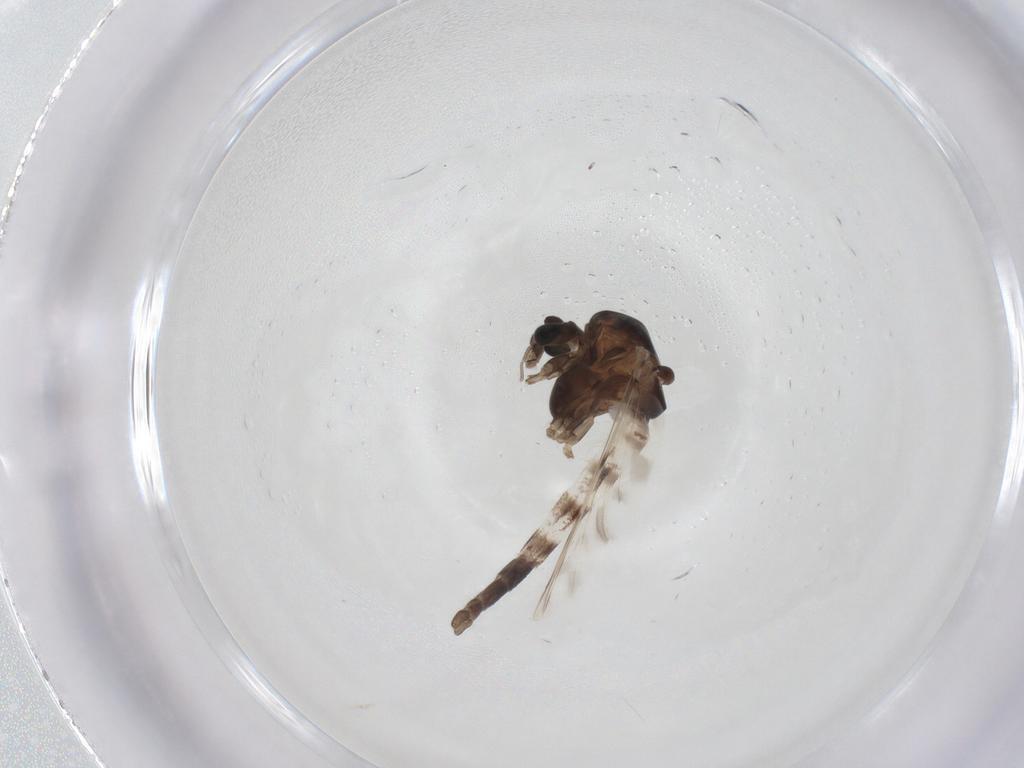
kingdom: Animalia
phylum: Arthropoda
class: Insecta
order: Diptera
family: Chironomidae
